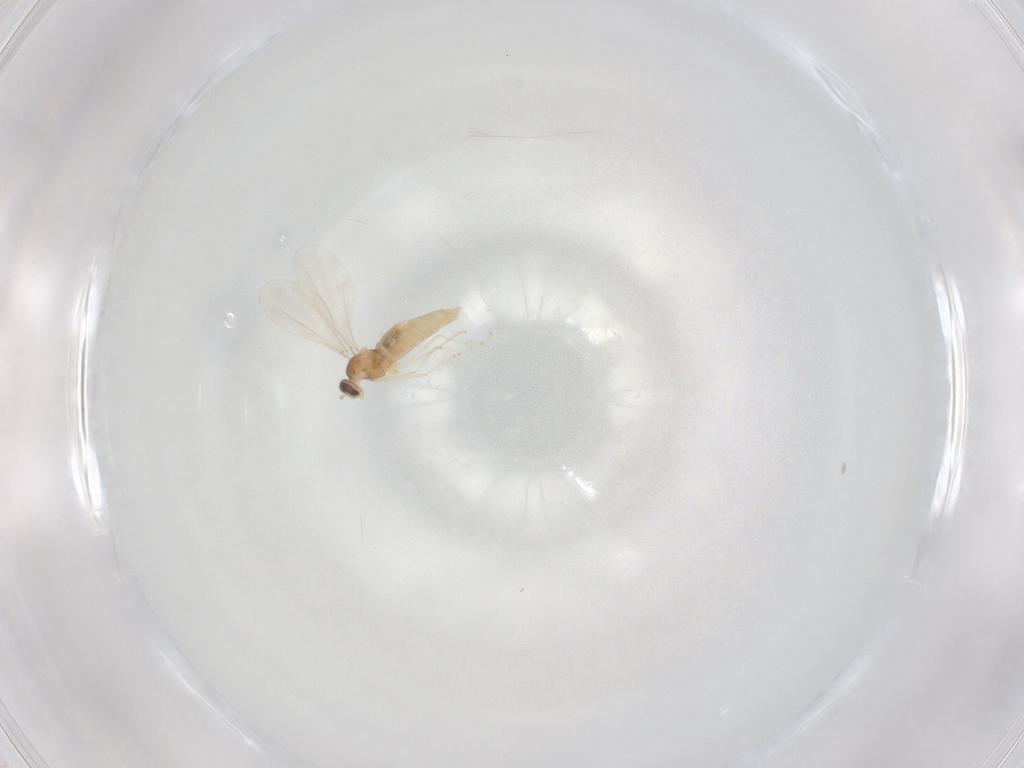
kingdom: Animalia
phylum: Arthropoda
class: Insecta
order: Diptera
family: Cecidomyiidae
